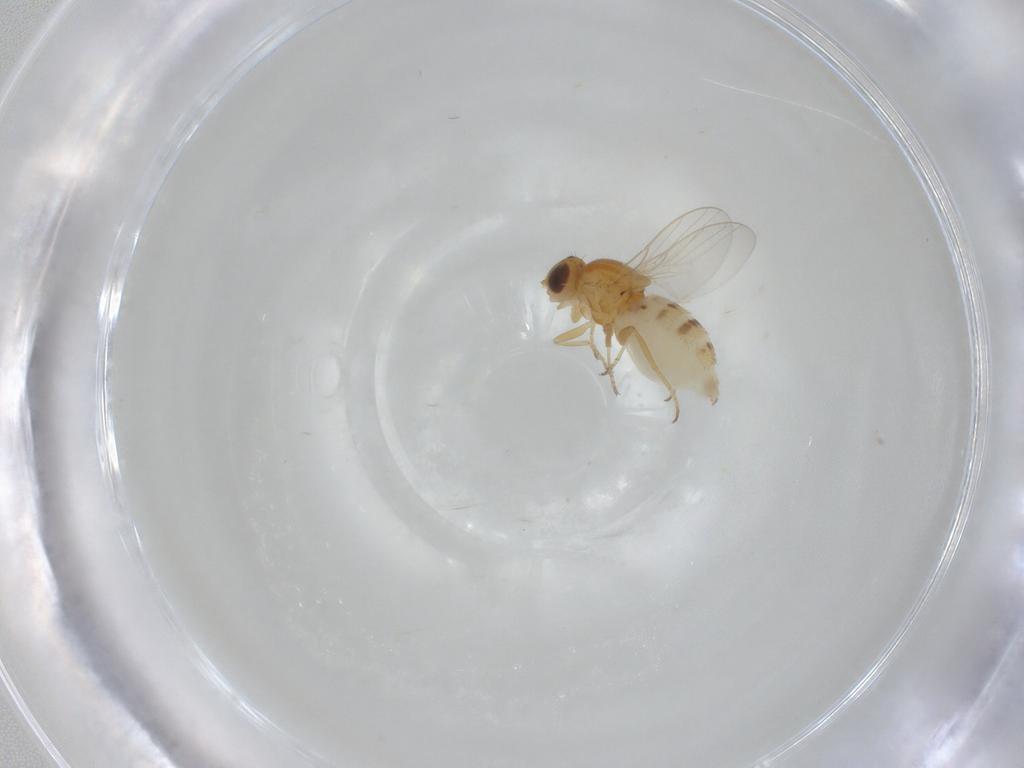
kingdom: Animalia
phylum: Arthropoda
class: Insecta
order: Diptera
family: Chloropidae
